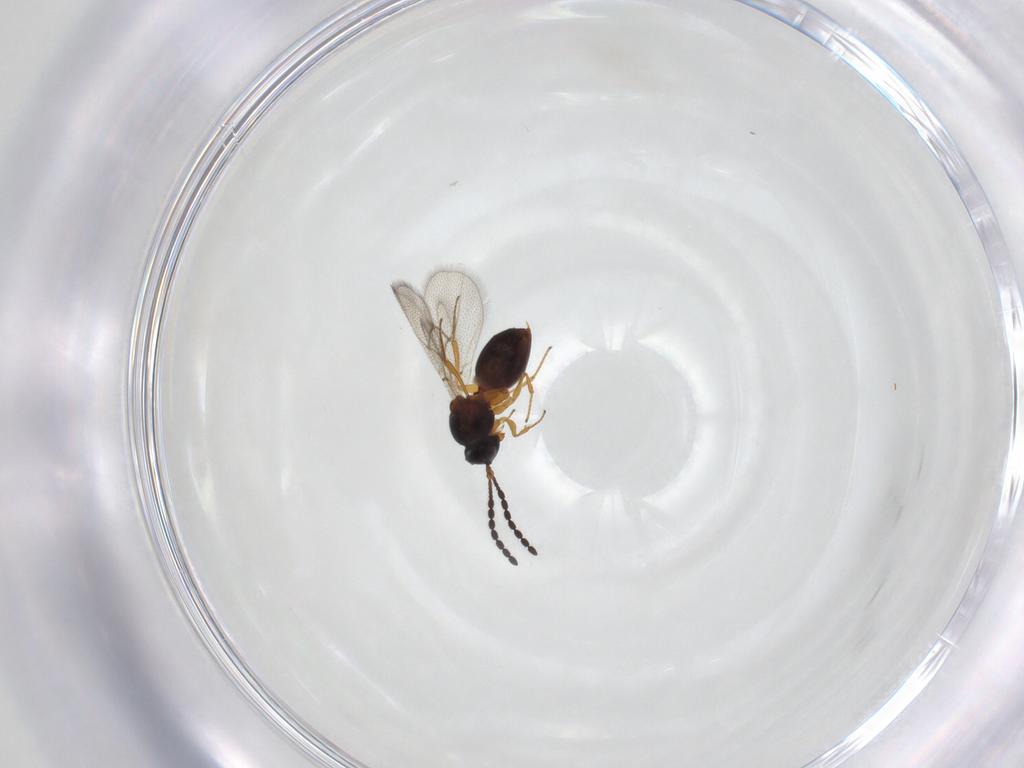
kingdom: Animalia
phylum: Arthropoda
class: Insecta
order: Hymenoptera
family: Figitidae
